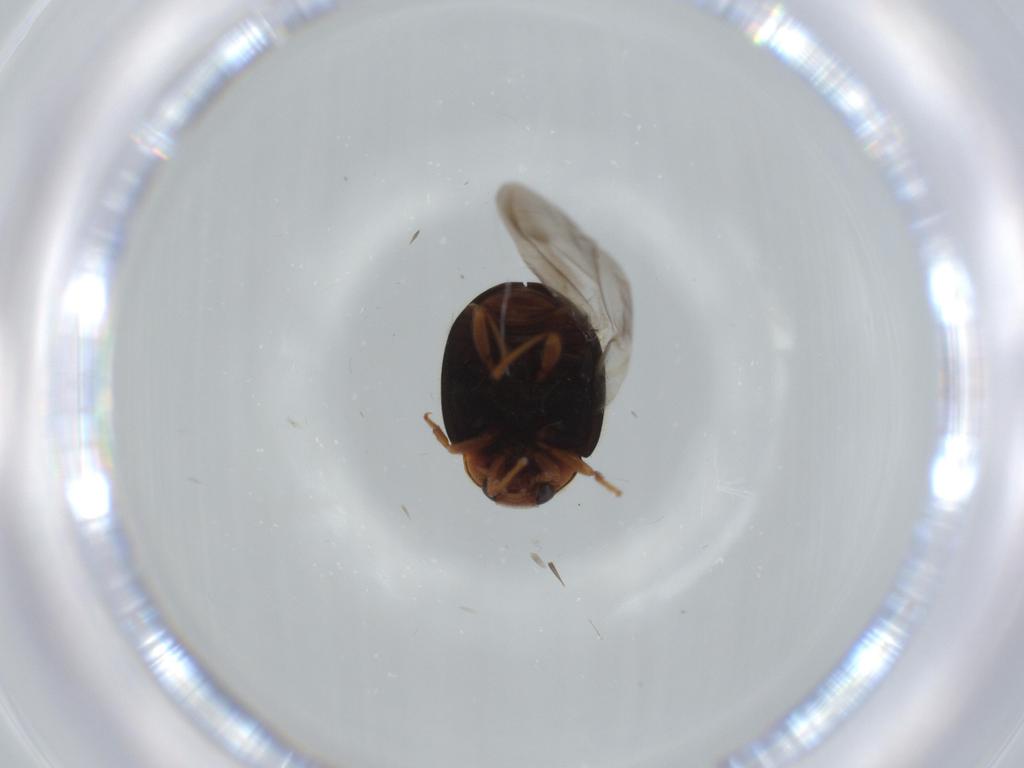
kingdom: Animalia
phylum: Arthropoda
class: Insecta
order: Coleoptera
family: Coccinellidae
